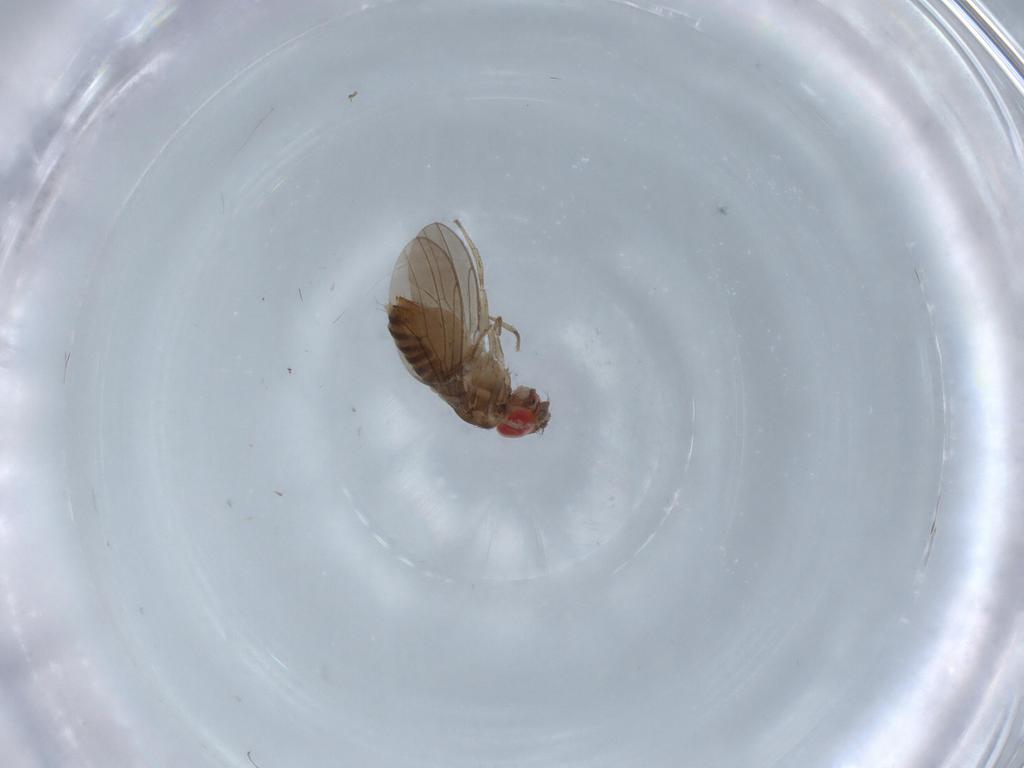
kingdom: Animalia
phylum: Arthropoda
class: Insecta
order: Diptera
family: Drosophilidae
